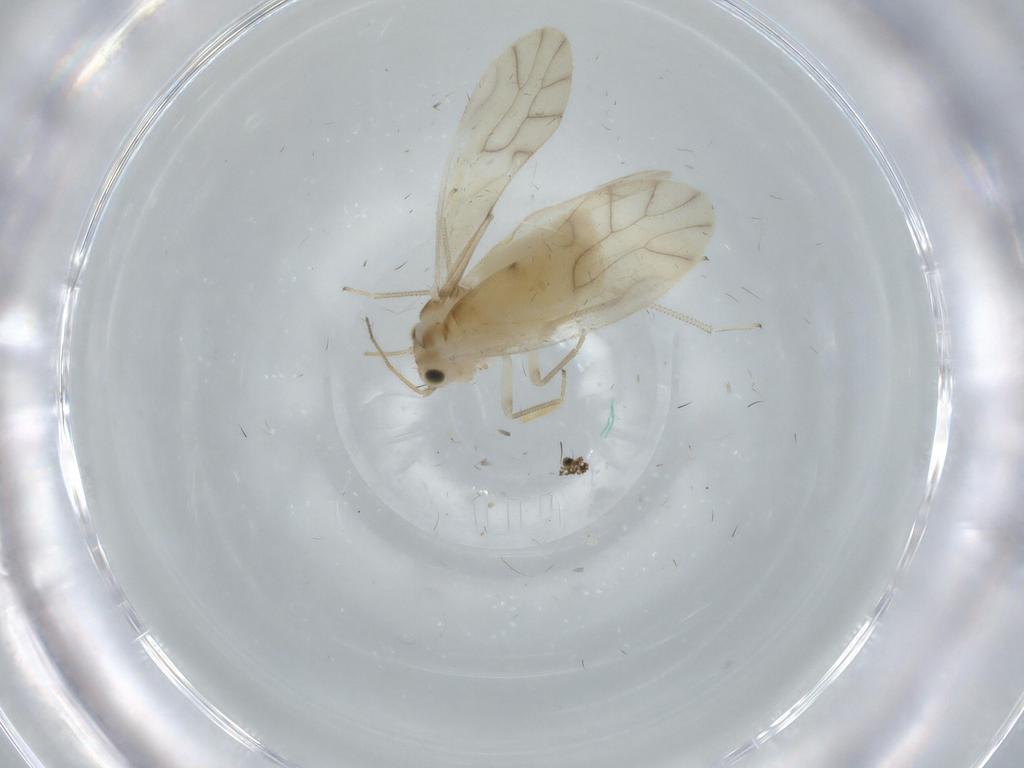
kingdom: Animalia
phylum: Arthropoda
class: Insecta
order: Psocodea
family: Caeciliusidae
